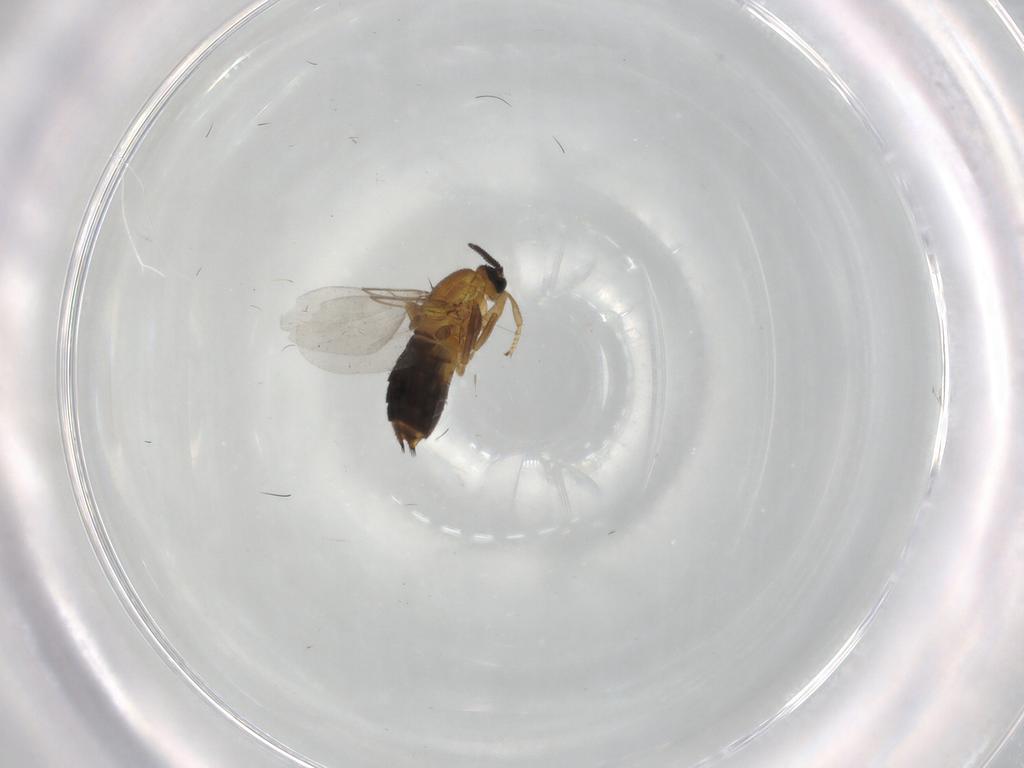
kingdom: Animalia
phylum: Arthropoda
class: Insecta
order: Diptera
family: Scatopsidae
